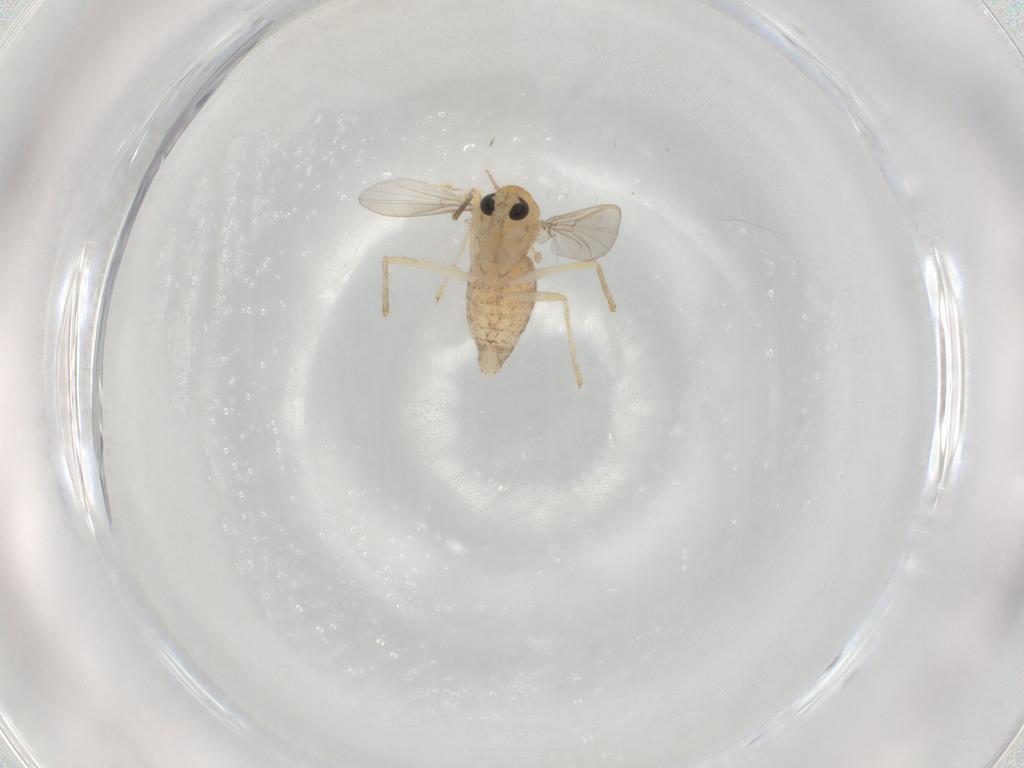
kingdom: Animalia
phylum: Arthropoda
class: Insecta
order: Diptera
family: Chironomidae
